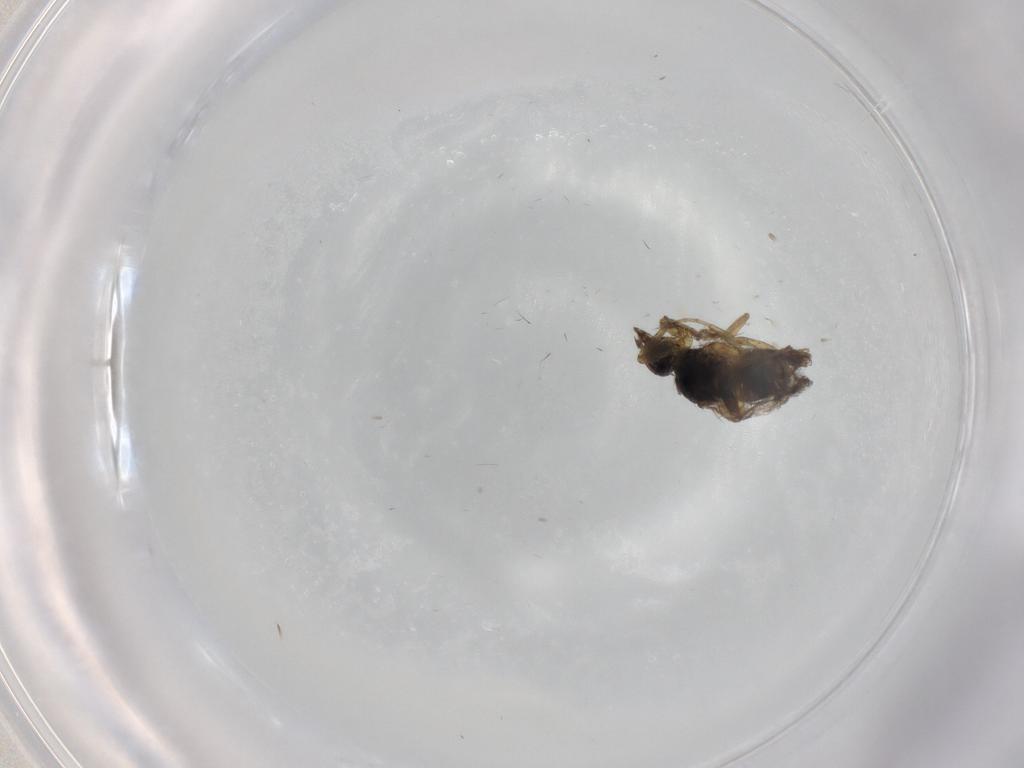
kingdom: Animalia
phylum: Arthropoda
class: Insecta
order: Diptera
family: Hybotidae
